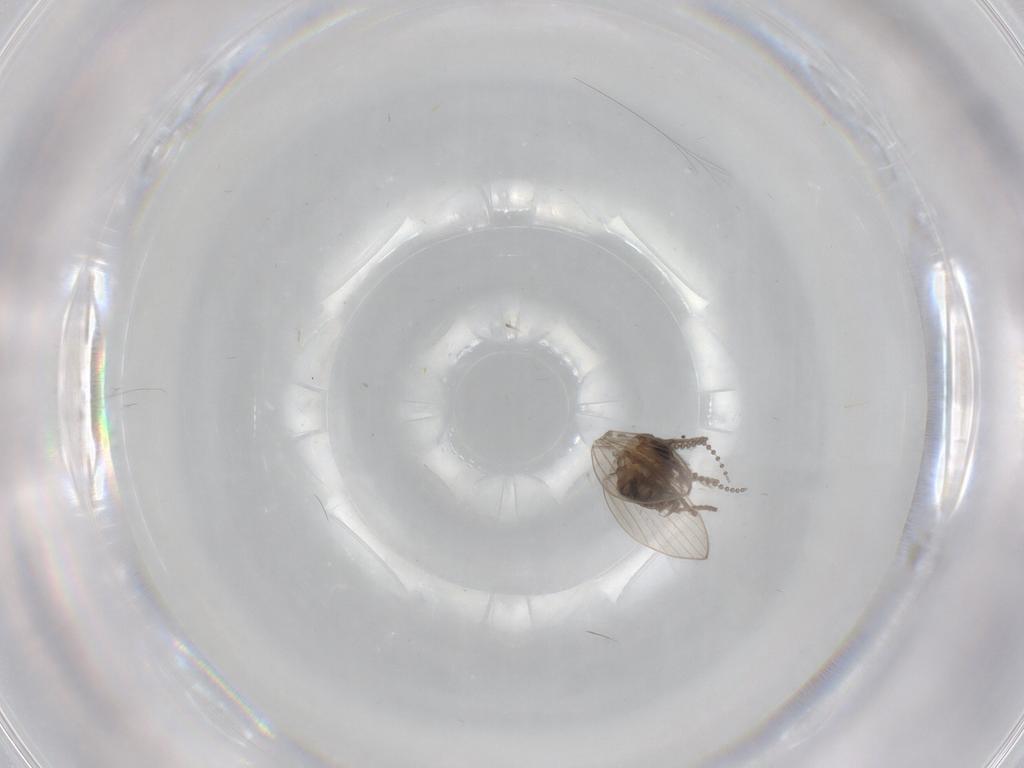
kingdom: Animalia
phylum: Arthropoda
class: Insecta
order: Diptera
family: Psychodidae
